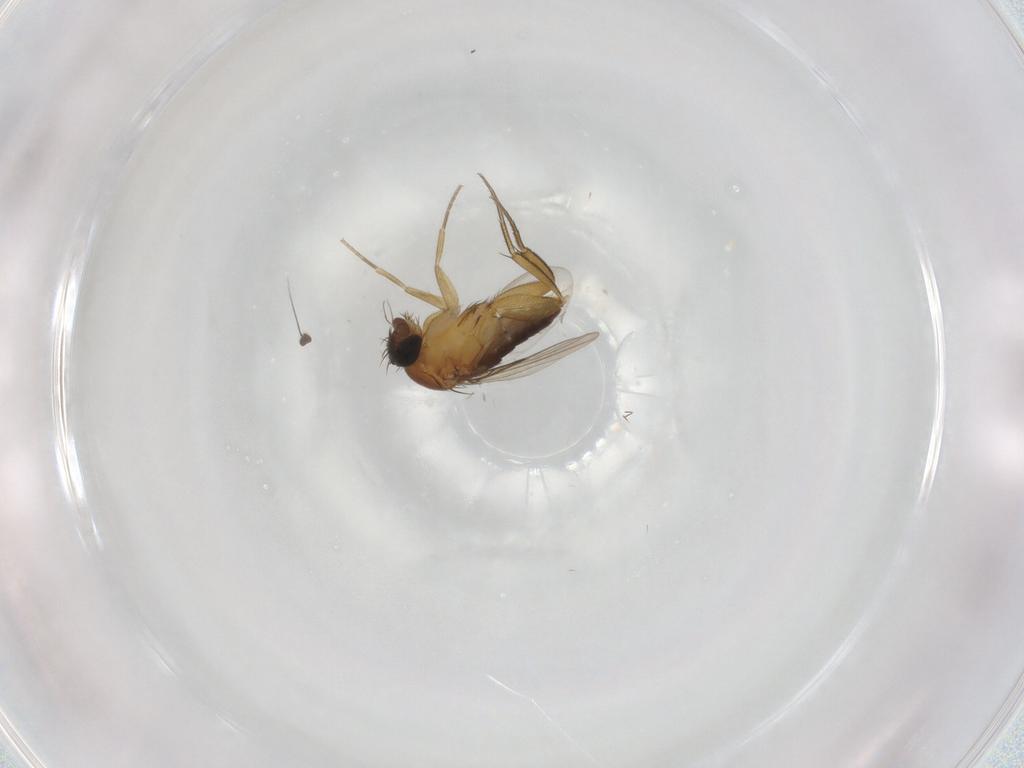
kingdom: Animalia
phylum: Arthropoda
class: Insecta
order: Diptera
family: Phoridae
